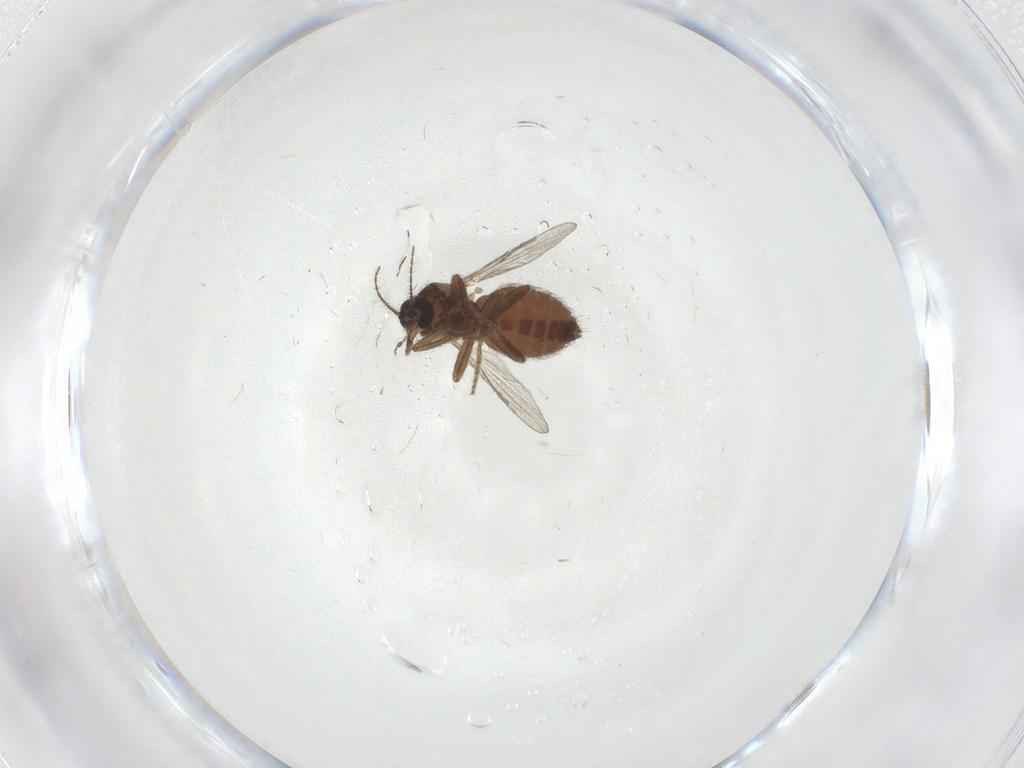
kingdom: Animalia
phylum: Arthropoda
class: Insecta
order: Diptera
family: Ceratopogonidae
